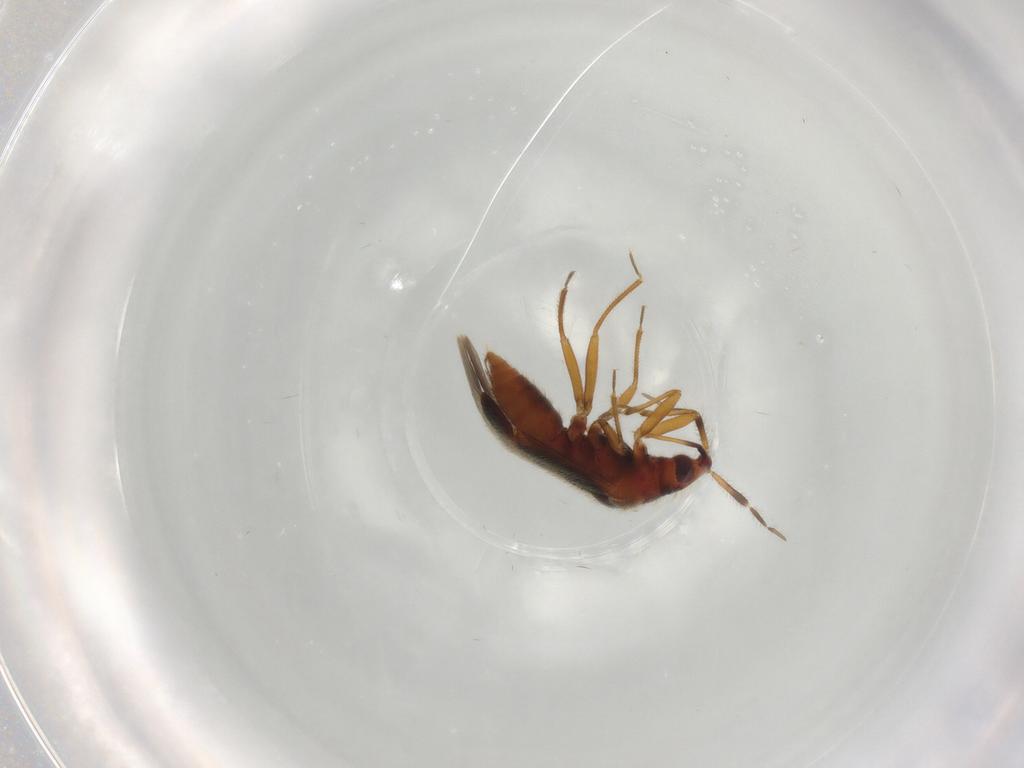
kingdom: Animalia
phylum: Arthropoda
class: Insecta
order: Hemiptera
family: Anthocoridae
